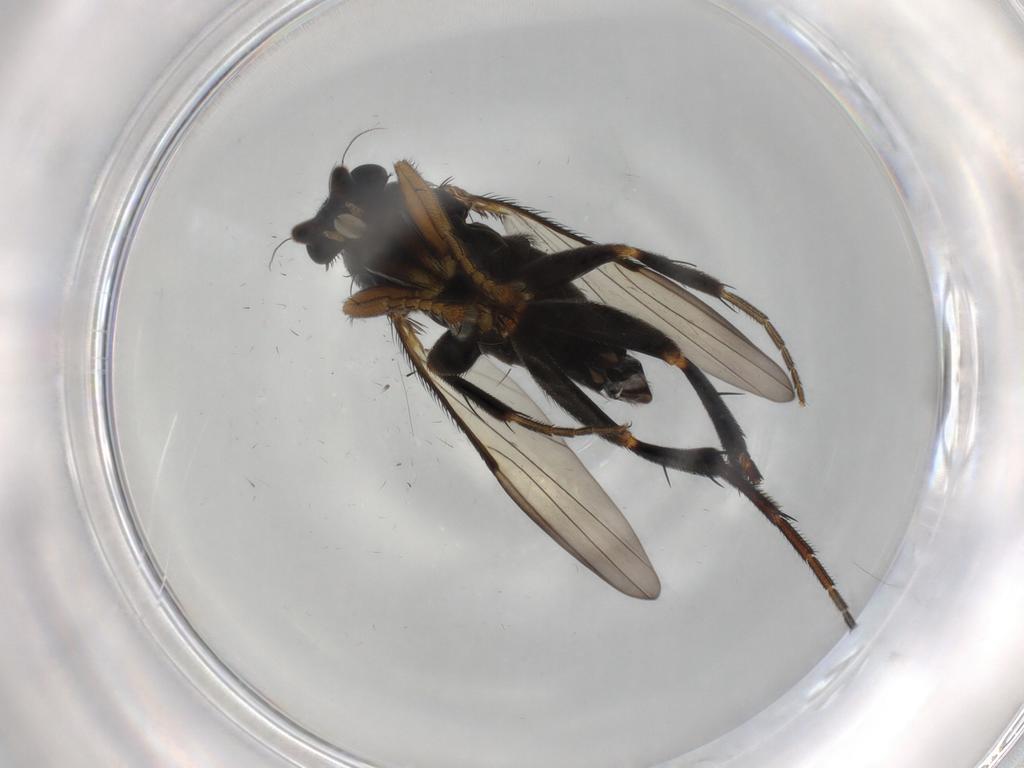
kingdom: Animalia
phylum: Arthropoda
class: Insecta
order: Diptera
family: Phoridae
